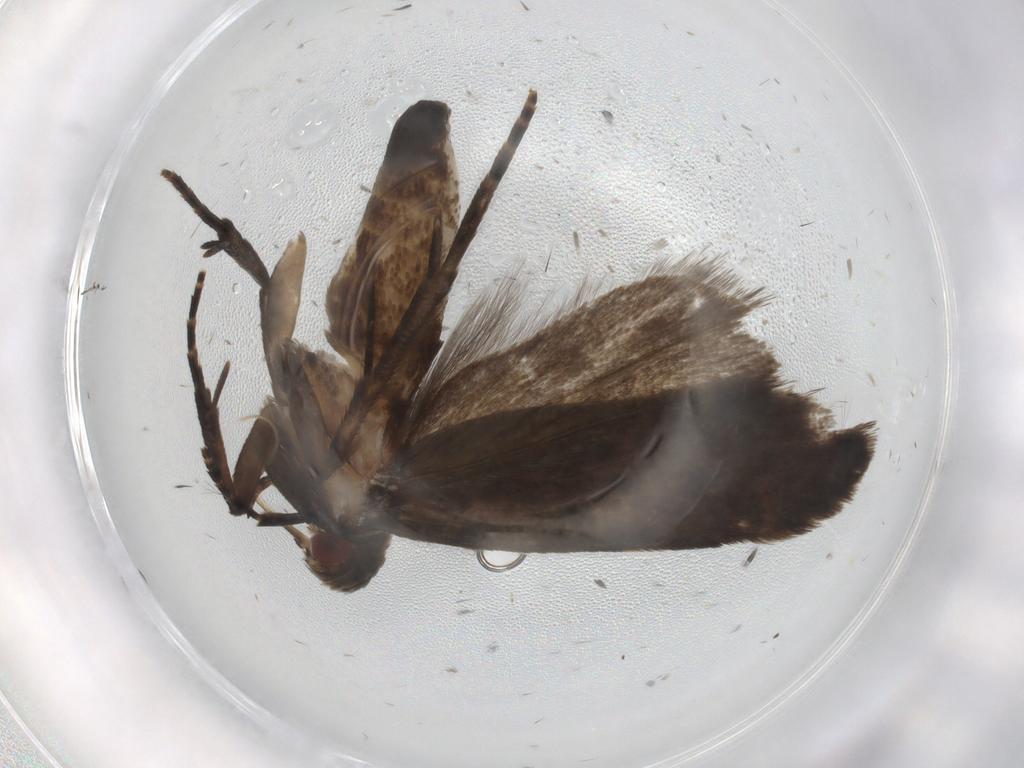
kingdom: Animalia
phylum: Arthropoda
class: Insecta
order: Lepidoptera
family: Gelechiidae
